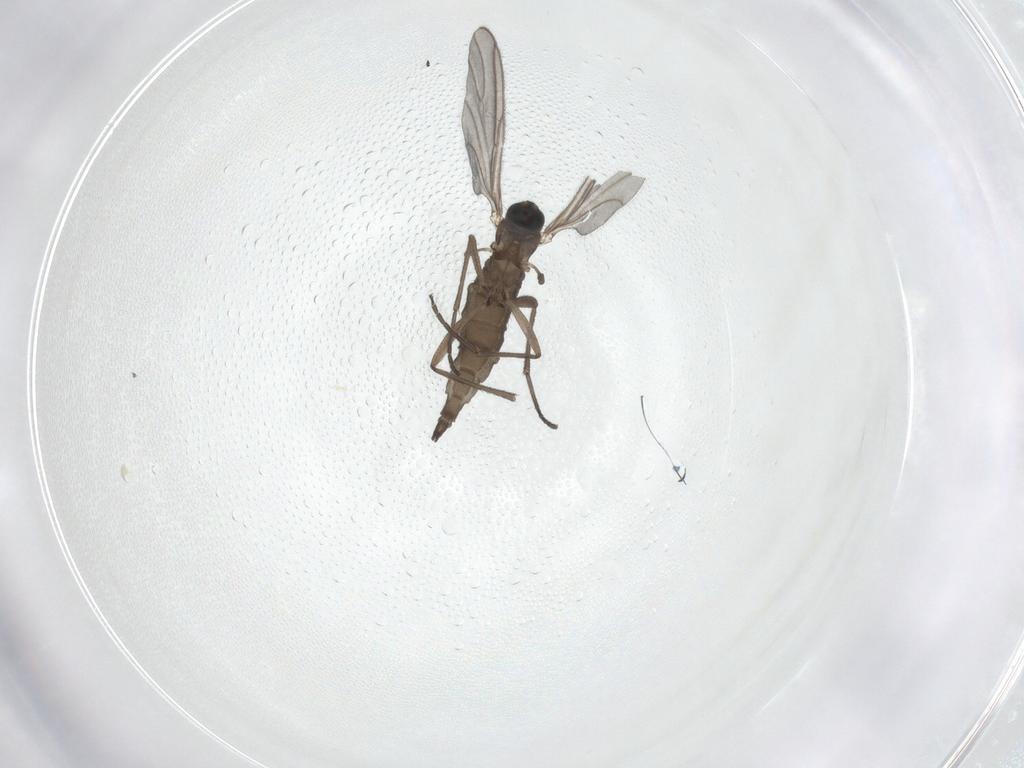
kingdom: Animalia
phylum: Arthropoda
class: Insecta
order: Diptera
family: Sciaridae
